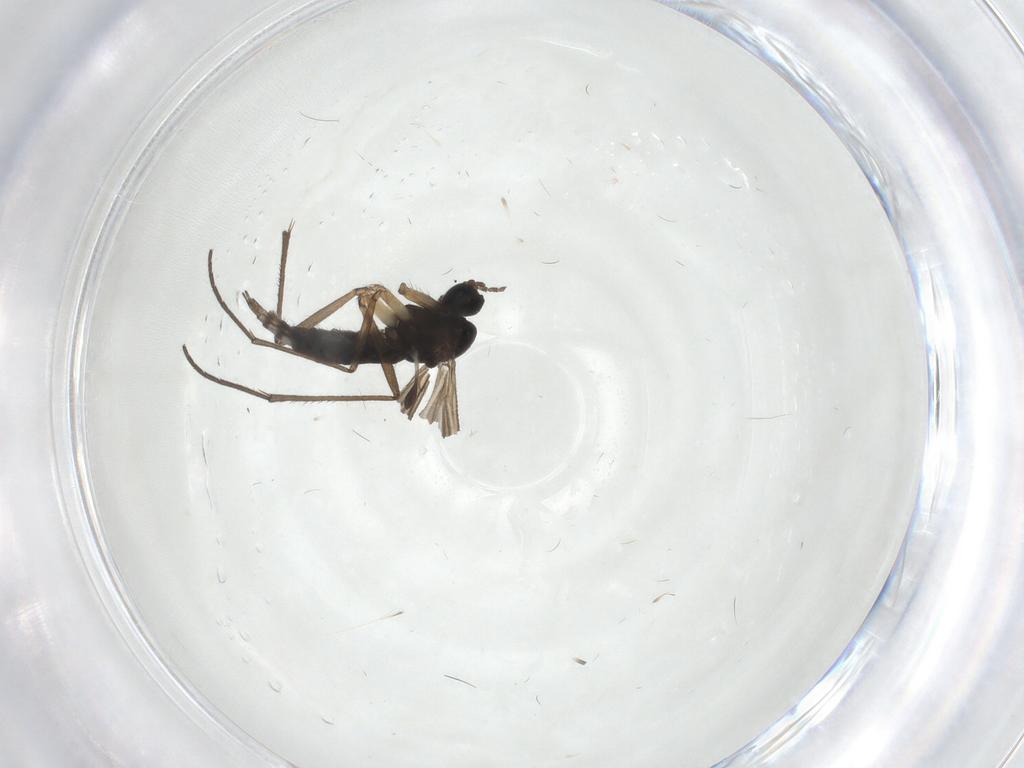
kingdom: Animalia
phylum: Arthropoda
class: Insecta
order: Diptera
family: Sciaridae
